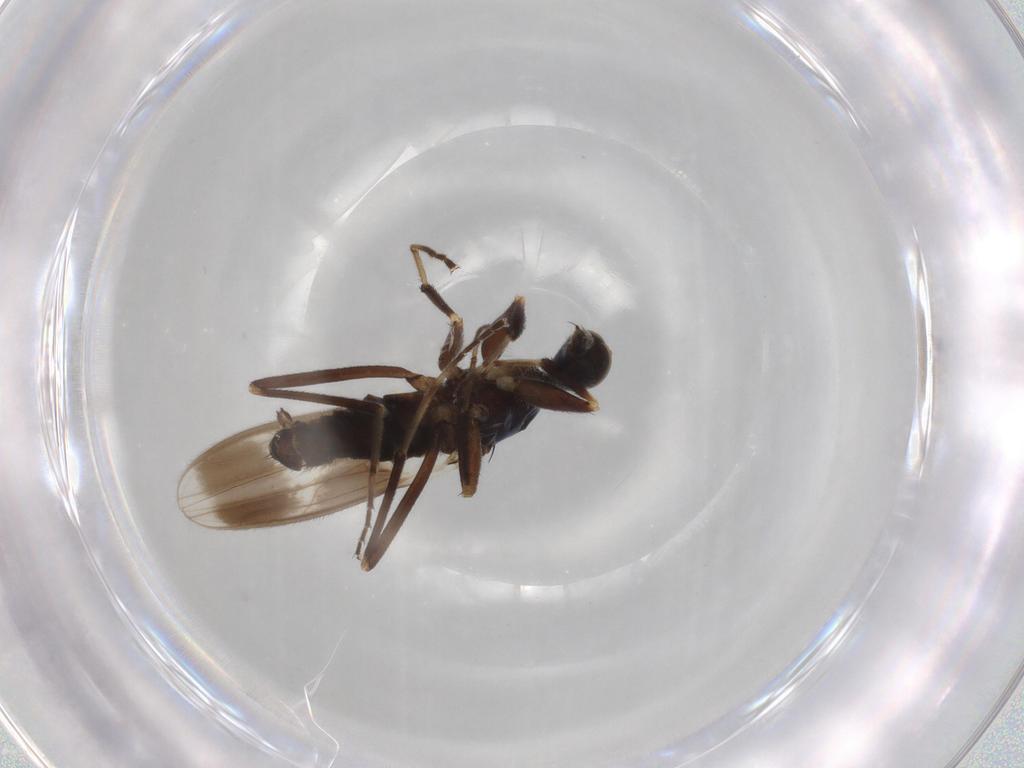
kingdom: Animalia
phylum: Arthropoda
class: Insecta
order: Diptera
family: Hybotidae
